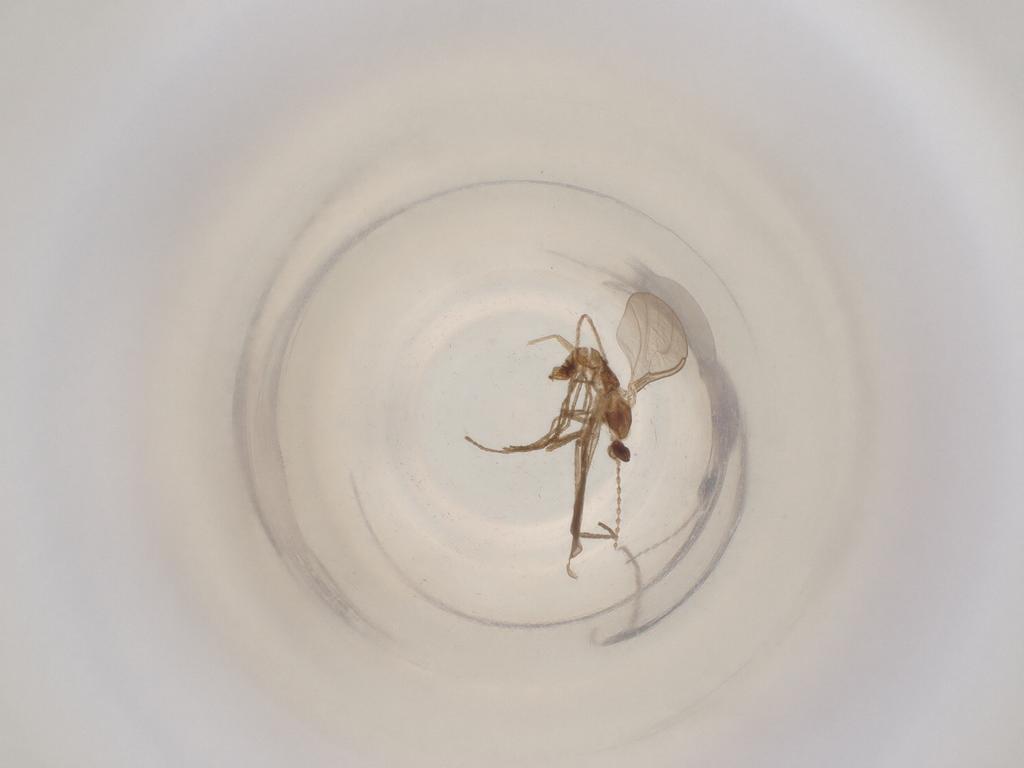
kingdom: Animalia
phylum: Arthropoda
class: Insecta
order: Diptera
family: Cecidomyiidae
